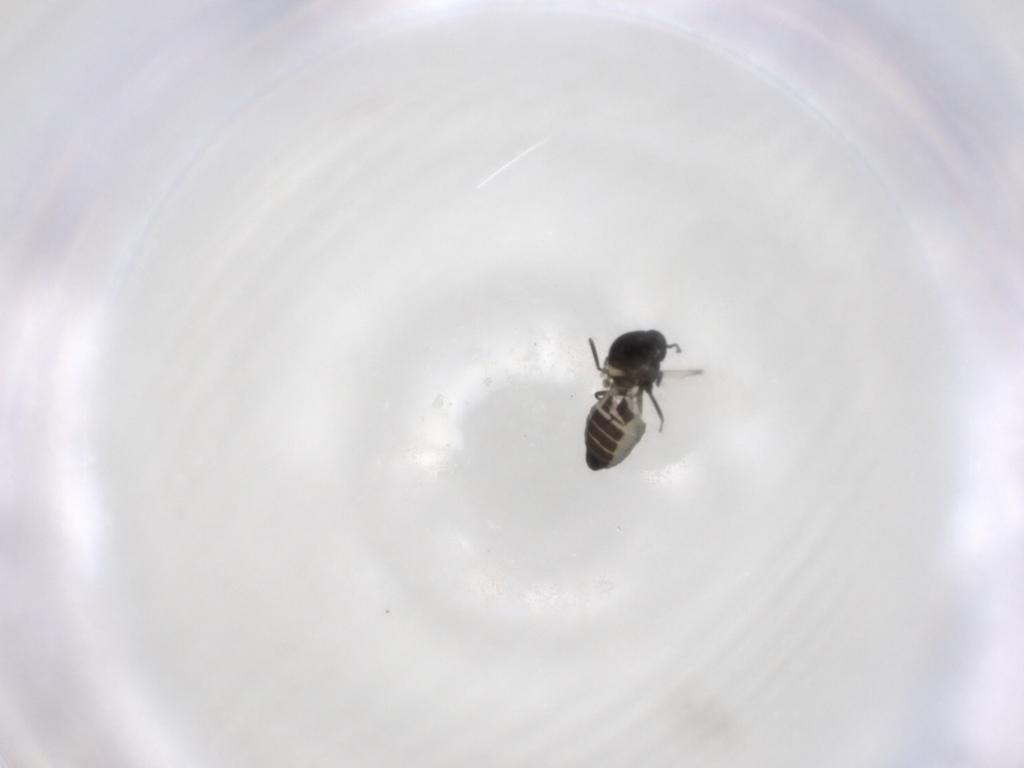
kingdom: Animalia
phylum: Arthropoda
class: Insecta
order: Diptera
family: Ceratopogonidae
